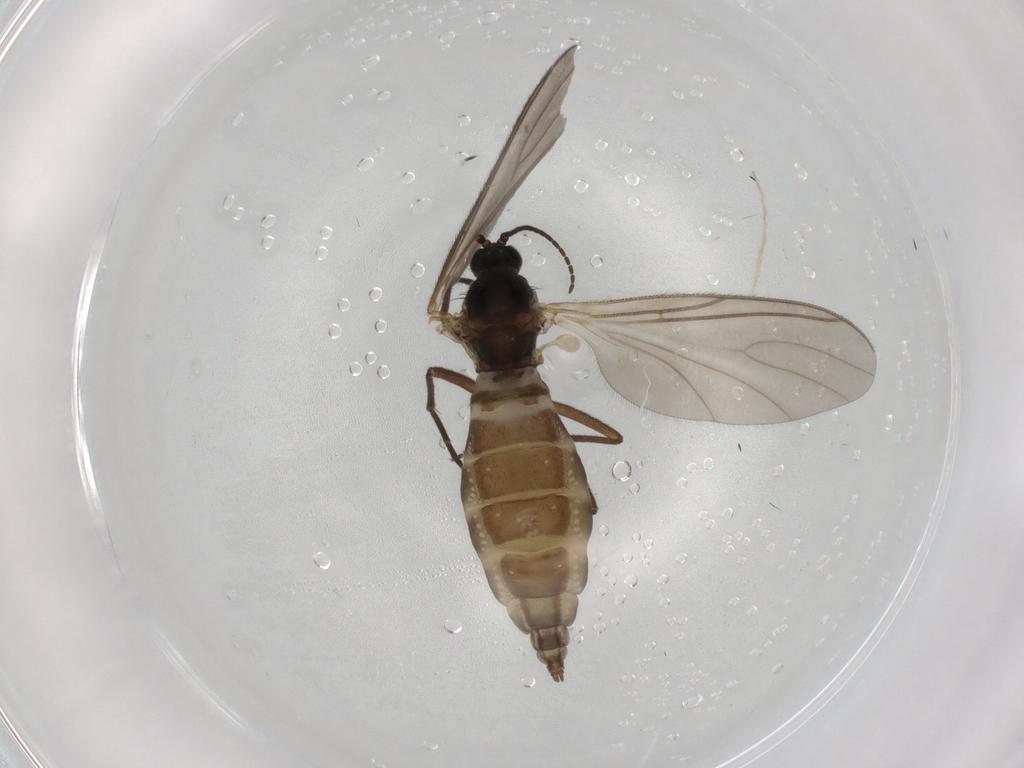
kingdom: Animalia
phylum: Arthropoda
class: Insecta
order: Diptera
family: Sciaridae
